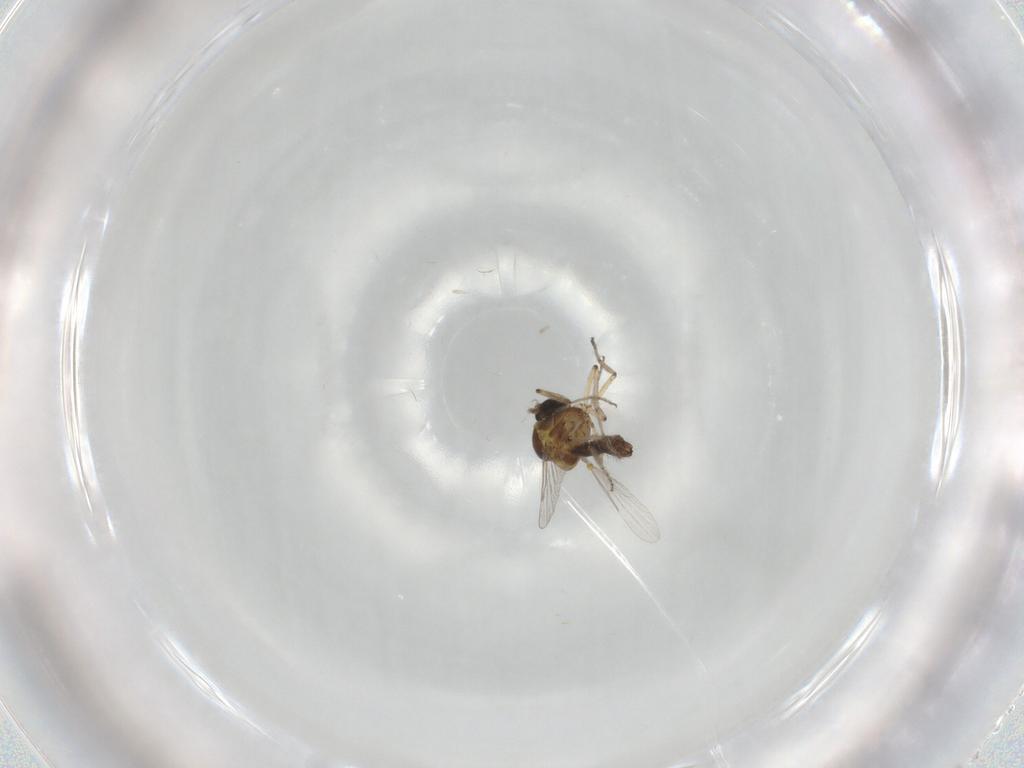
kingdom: Animalia
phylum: Arthropoda
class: Insecta
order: Diptera
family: Ceratopogonidae
